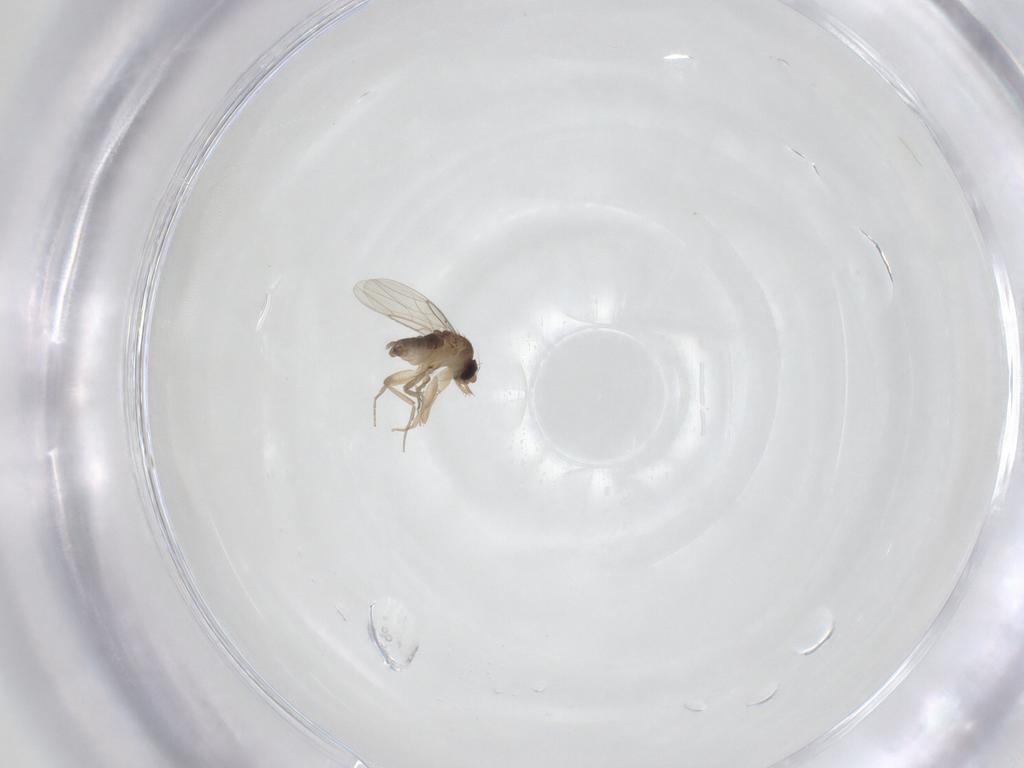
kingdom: Animalia
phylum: Arthropoda
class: Insecta
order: Diptera
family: Phoridae
